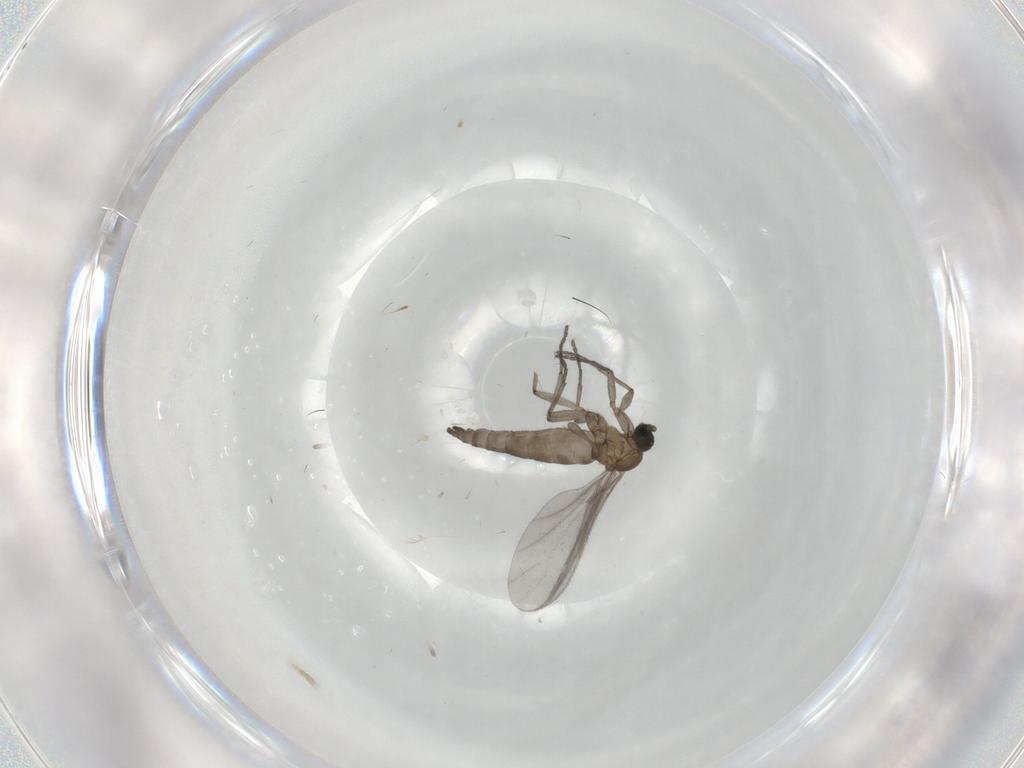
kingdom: Animalia
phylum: Arthropoda
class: Insecta
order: Diptera
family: Sciaridae
